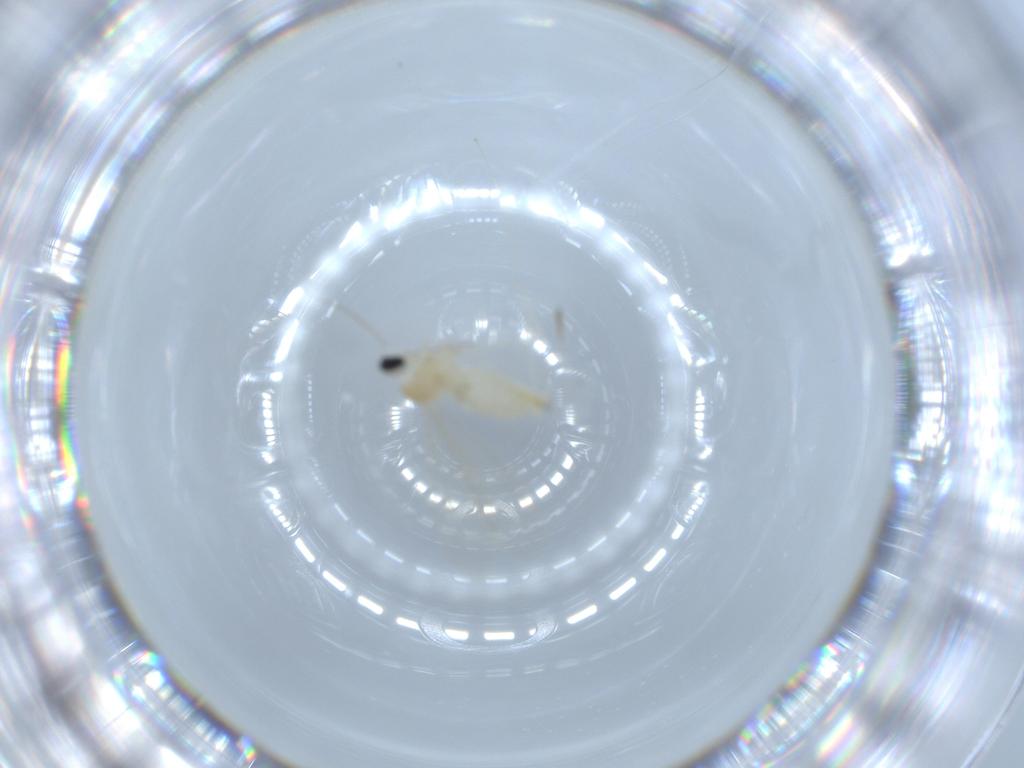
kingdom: Animalia
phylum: Arthropoda
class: Insecta
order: Diptera
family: Cecidomyiidae
